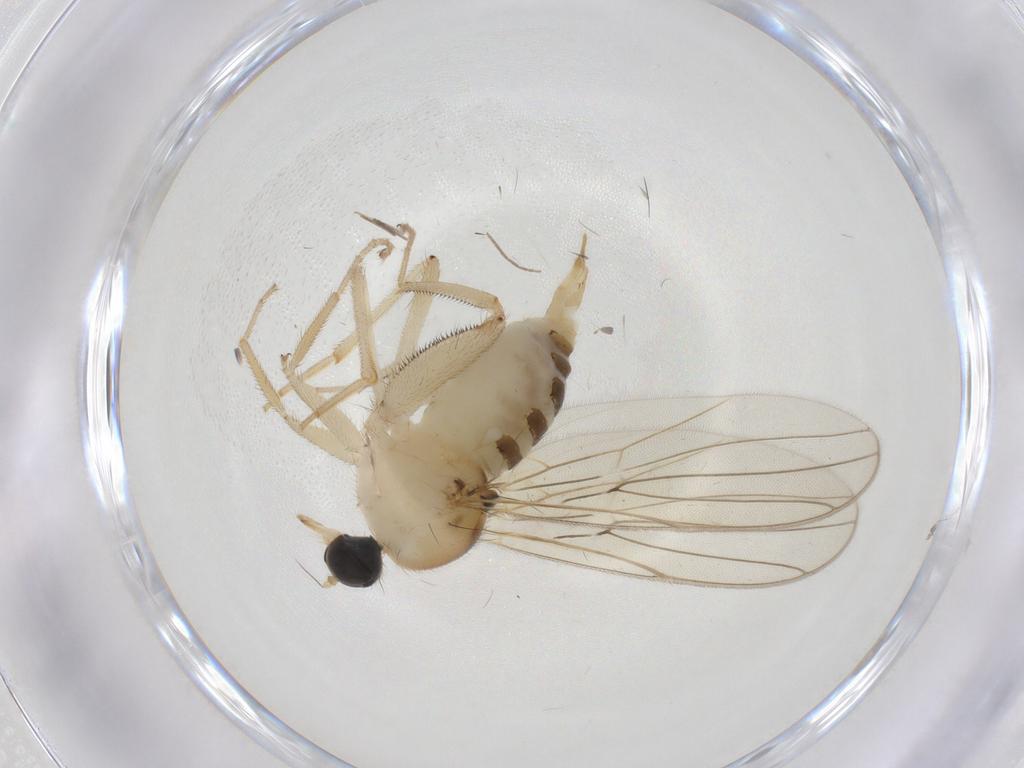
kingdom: Animalia
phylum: Arthropoda
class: Insecta
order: Diptera
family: Hybotidae
